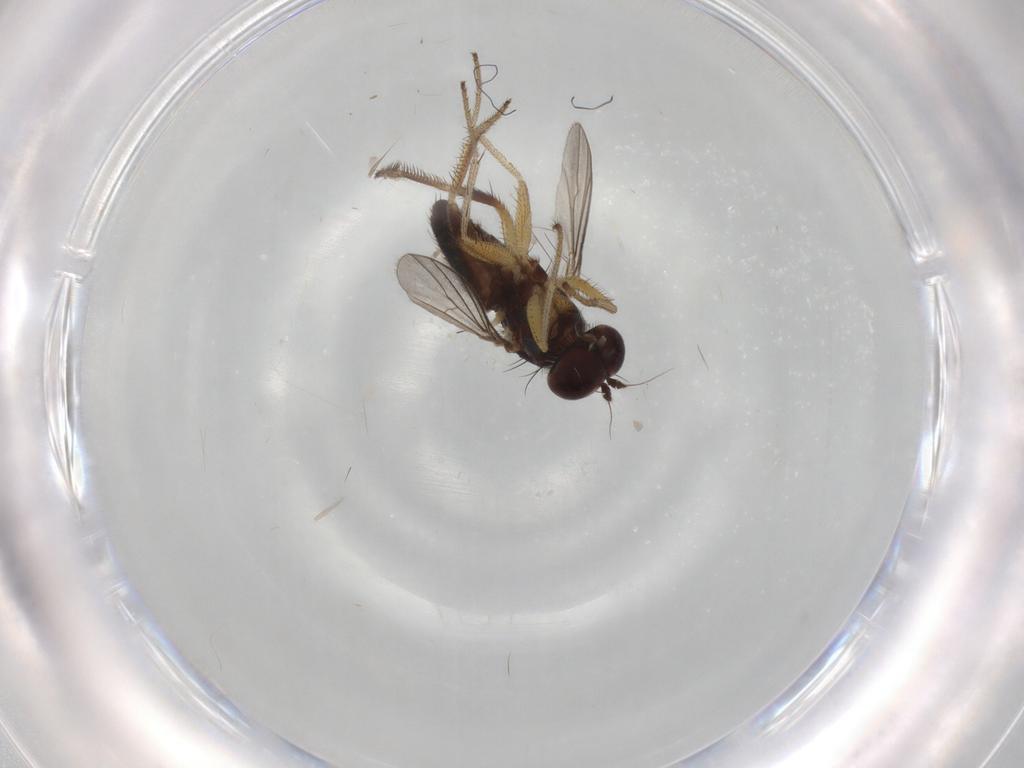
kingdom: Animalia
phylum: Arthropoda
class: Insecta
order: Diptera
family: Dolichopodidae
